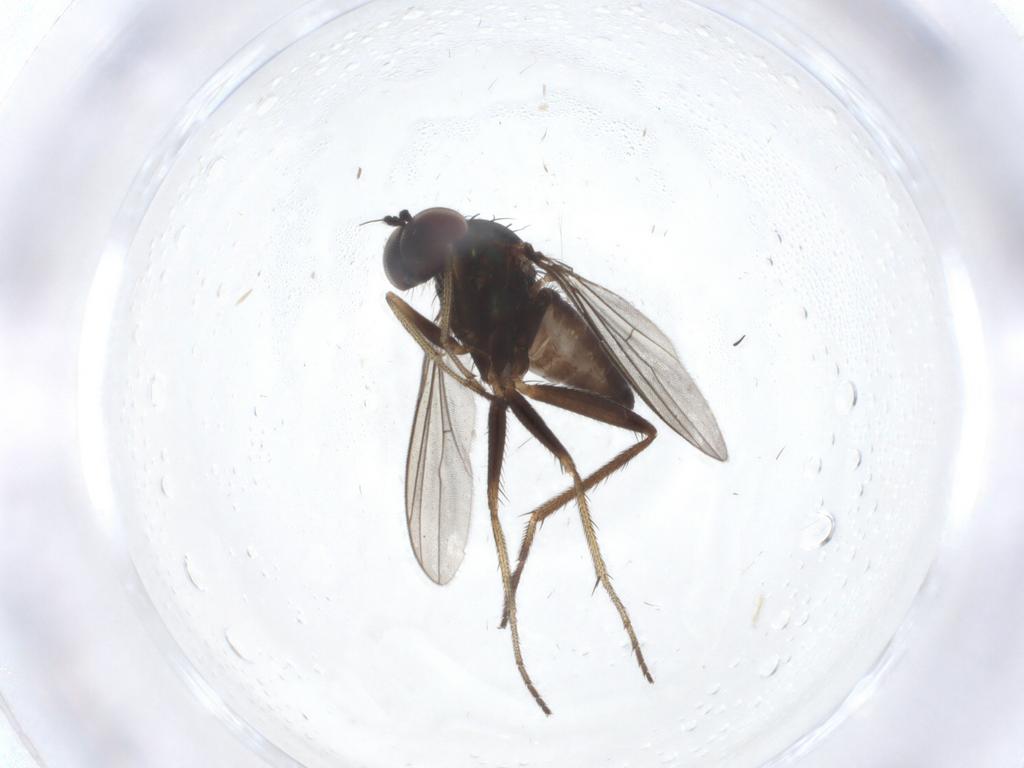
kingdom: Animalia
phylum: Arthropoda
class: Insecta
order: Diptera
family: Dolichopodidae
